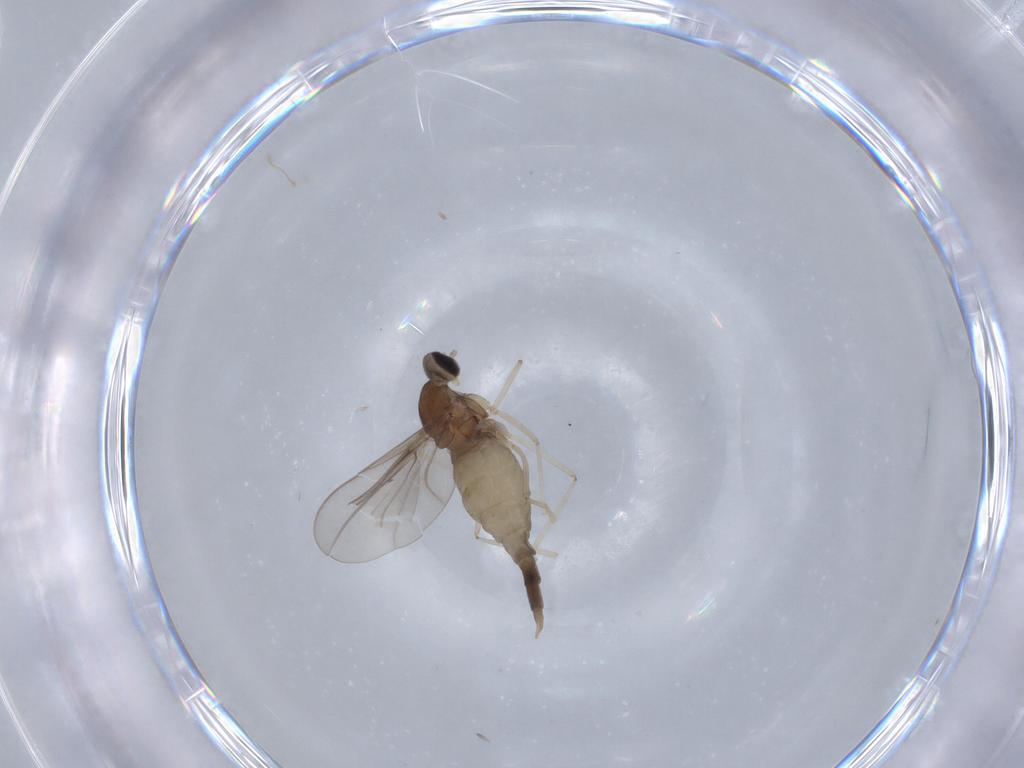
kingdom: Animalia
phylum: Arthropoda
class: Insecta
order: Diptera
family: Cecidomyiidae
